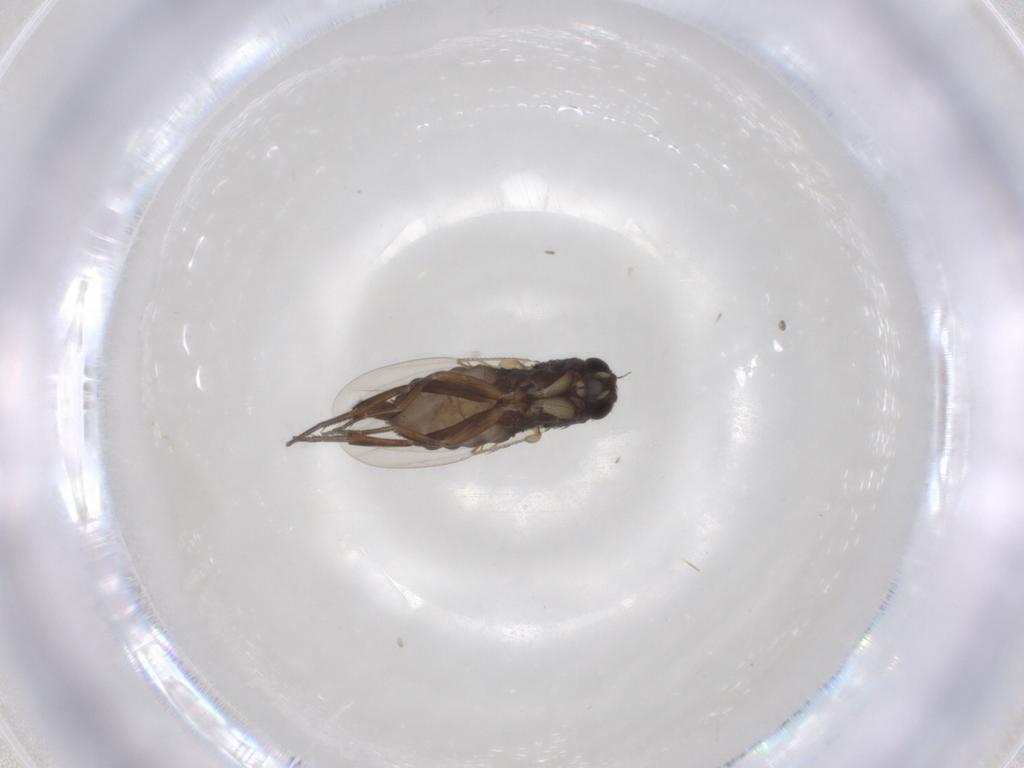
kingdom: Animalia
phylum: Arthropoda
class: Insecta
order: Diptera
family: Phoridae
